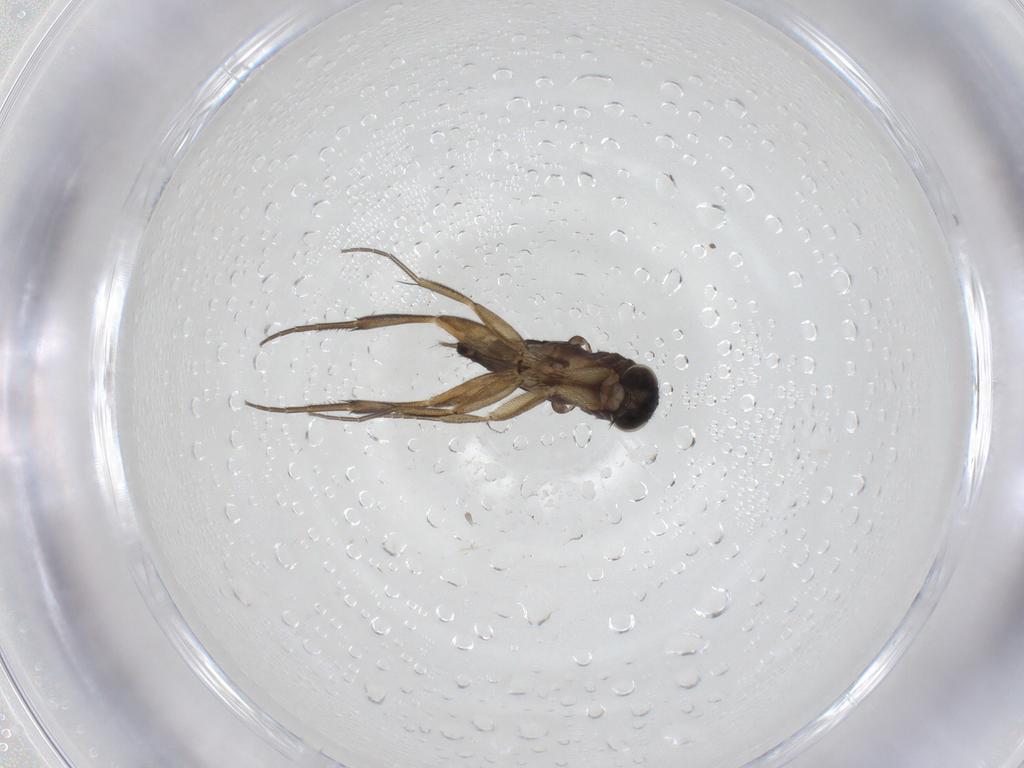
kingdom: Animalia
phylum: Arthropoda
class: Insecta
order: Diptera
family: Phoridae
